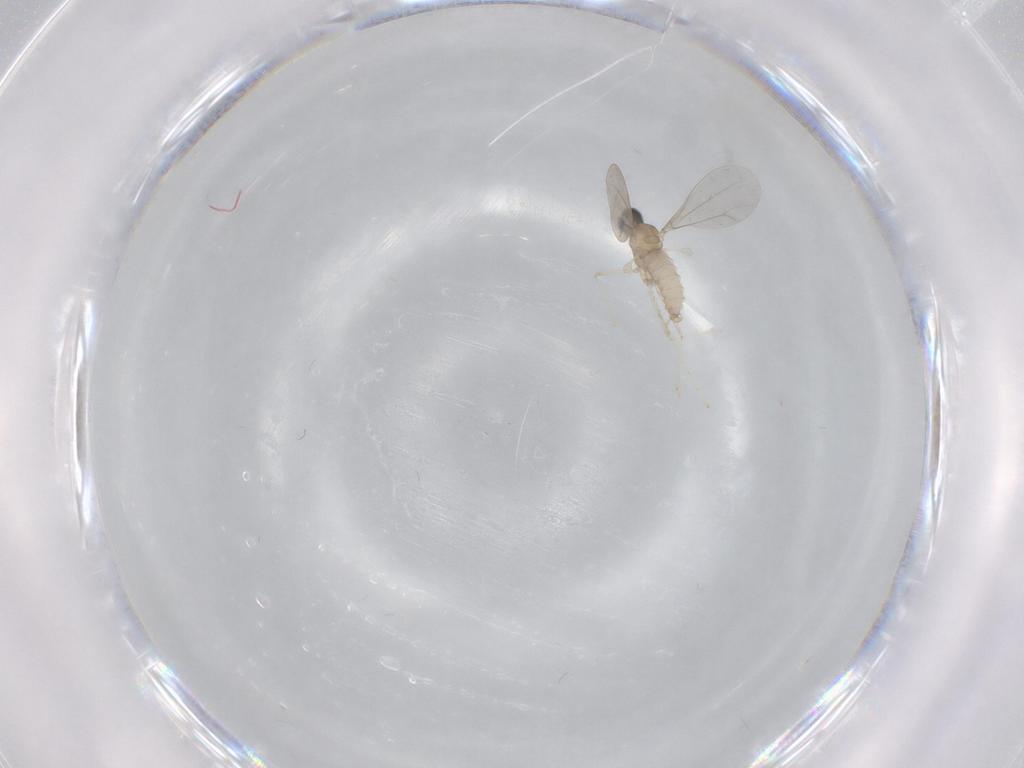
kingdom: Animalia
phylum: Arthropoda
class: Insecta
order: Diptera
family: Cecidomyiidae
